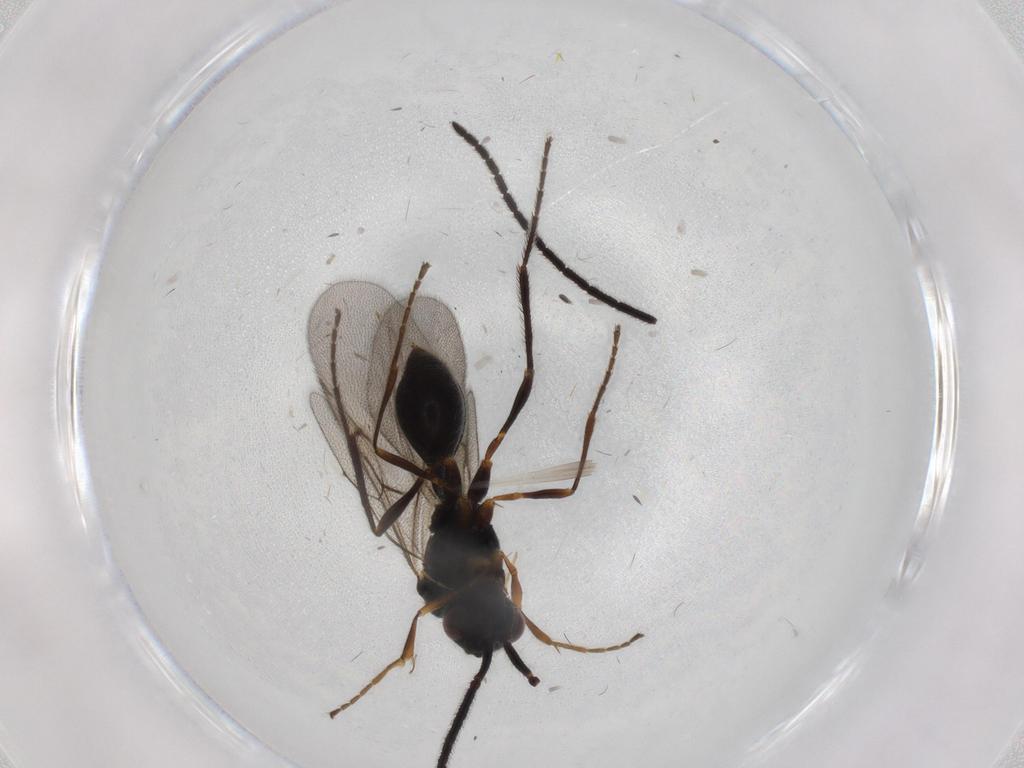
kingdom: Animalia
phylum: Arthropoda
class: Insecta
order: Hymenoptera
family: Diapriidae
